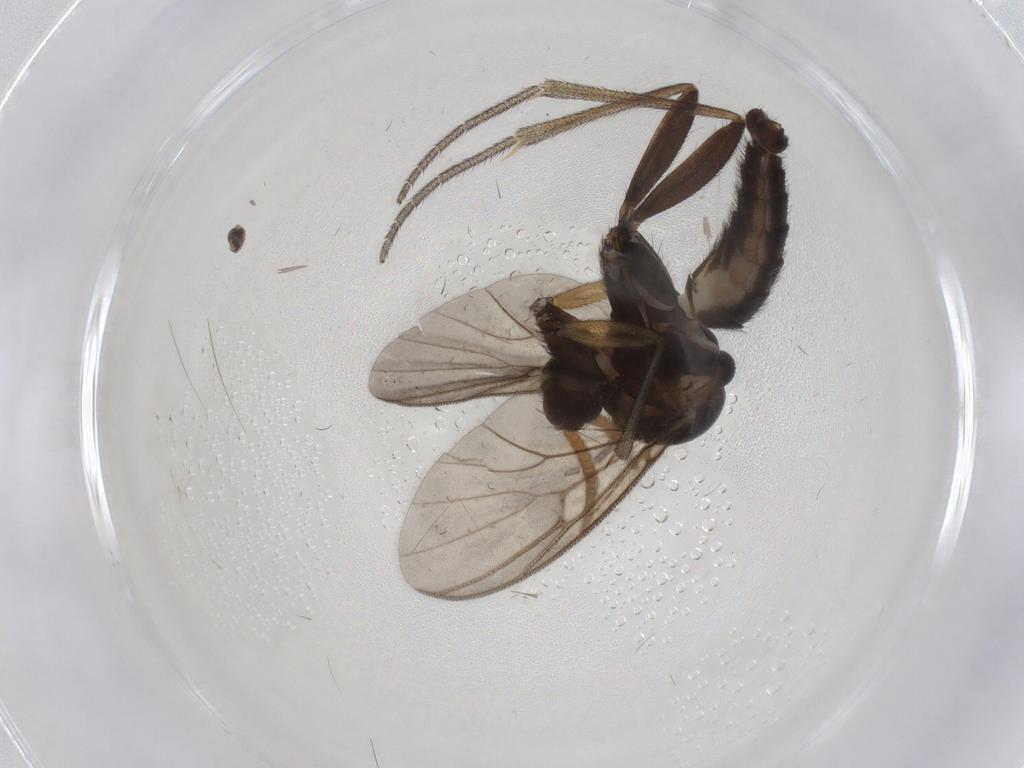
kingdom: Animalia
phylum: Arthropoda
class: Insecta
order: Diptera
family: Mycetophilidae
